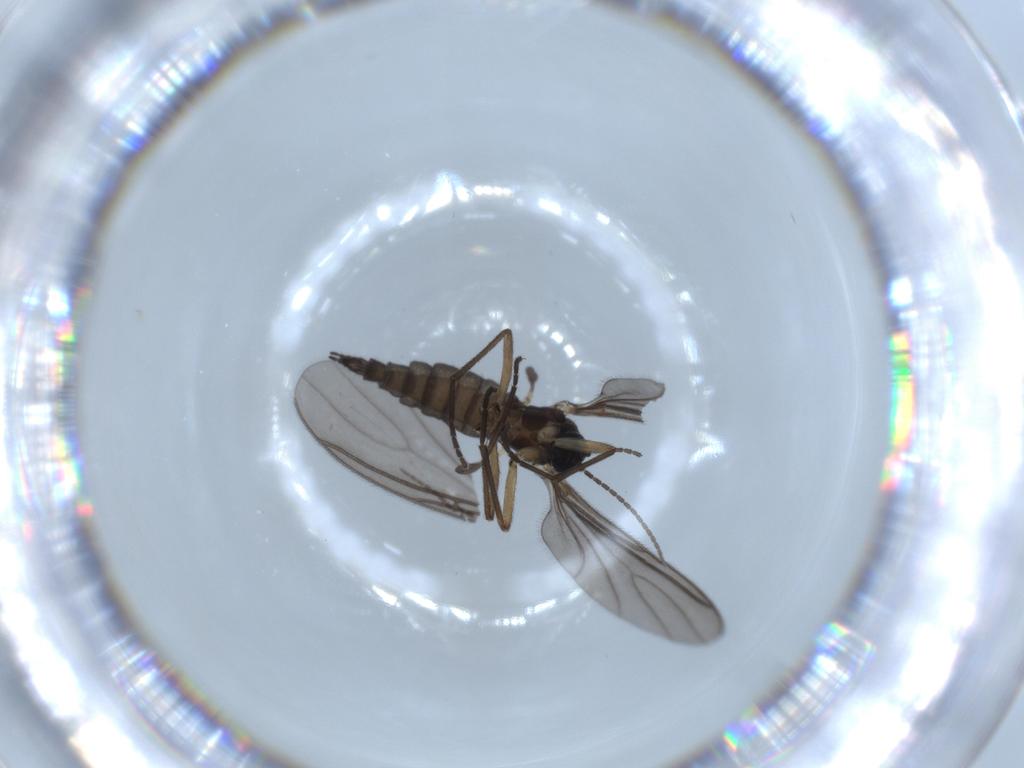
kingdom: Animalia
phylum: Arthropoda
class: Insecta
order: Diptera
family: Sciaridae
